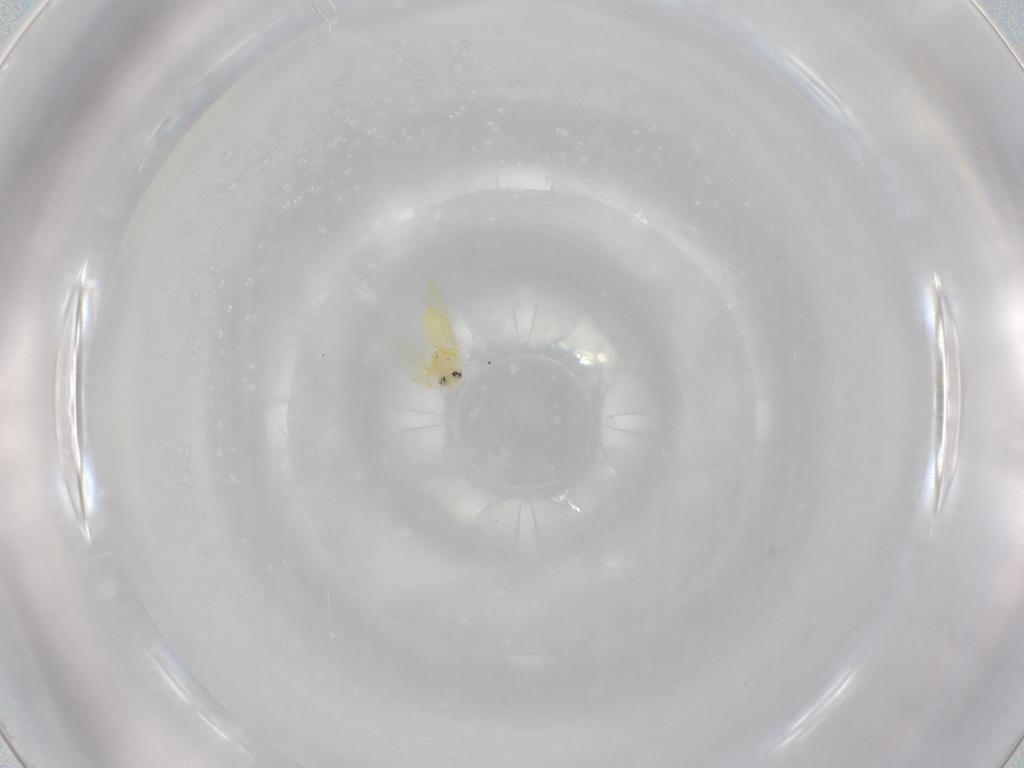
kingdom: Animalia
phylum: Arthropoda
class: Insecta
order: Hemiptera
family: Aleyrodidae
